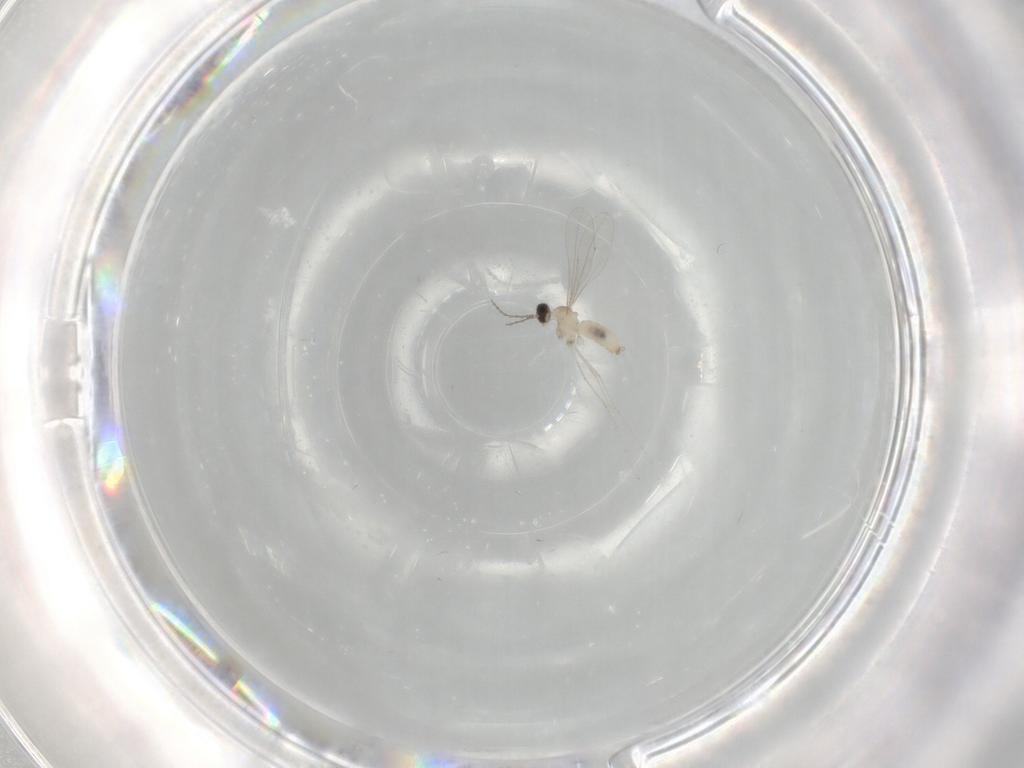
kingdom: Animalia
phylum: Arthropoda
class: Insecta
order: Diptera
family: Cecidomyiidae
